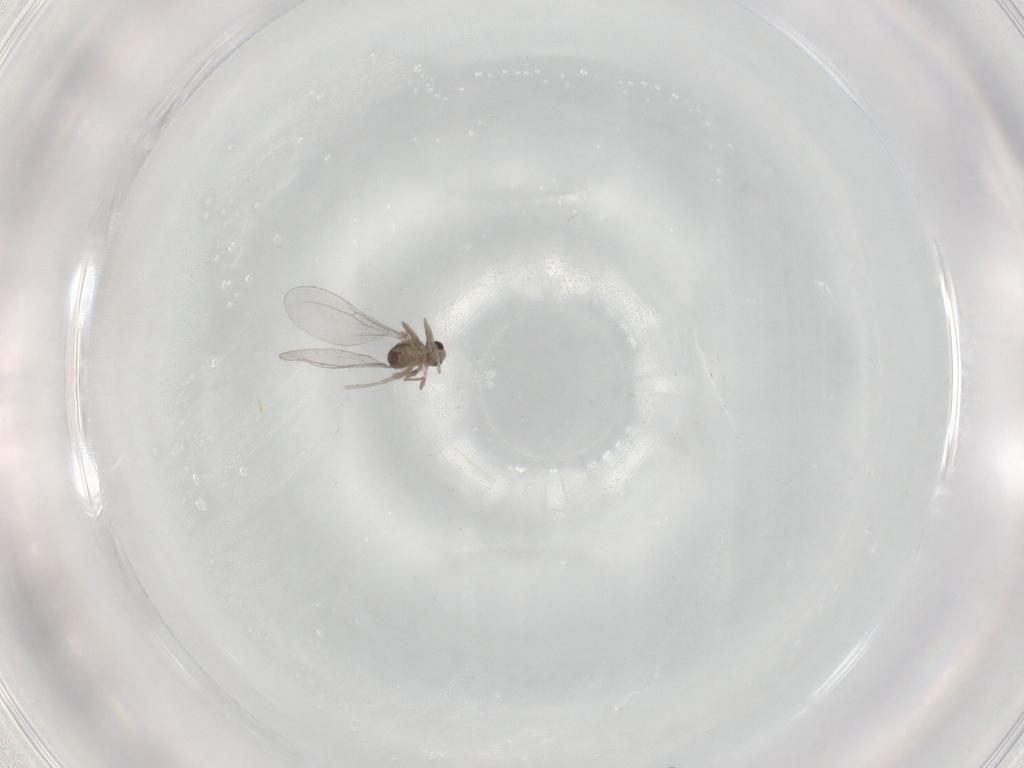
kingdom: Animalia
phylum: Arthropoda
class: Insecta
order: Diptera
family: Cecidomyiidae
